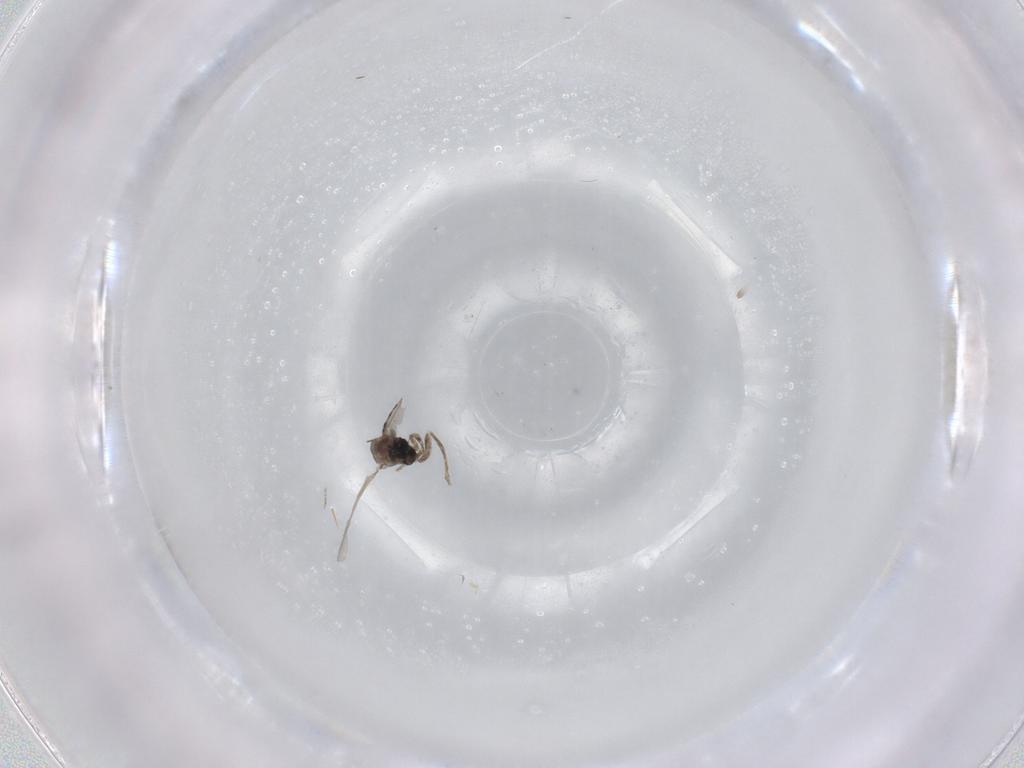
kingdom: Animalia
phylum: Arthropoda
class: Insecta
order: Diptera
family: Cecidomyiidae
